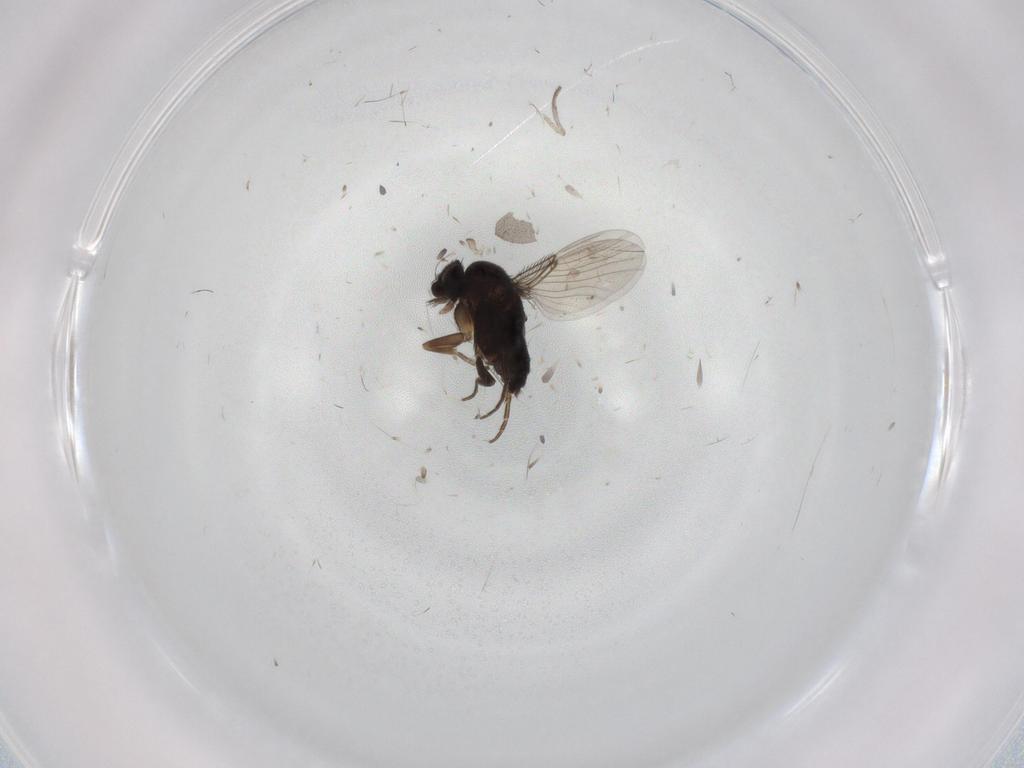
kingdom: Animalia
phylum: Arthropoda
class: Insecta
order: Diptera
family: Phoridae
